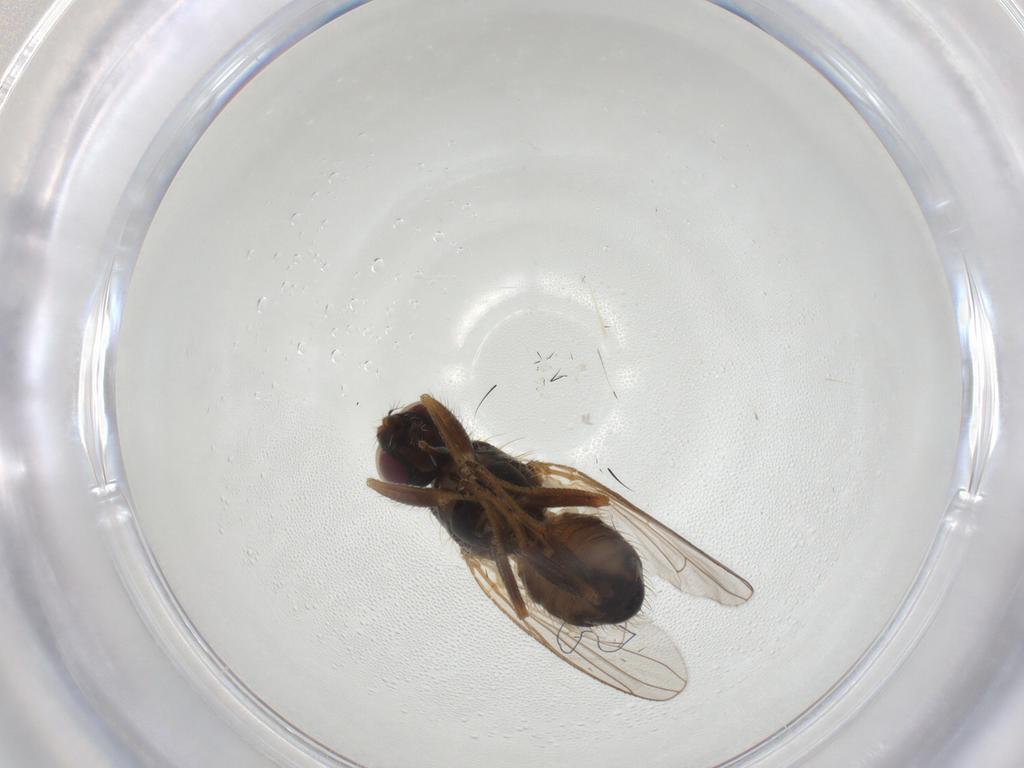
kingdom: Animalia
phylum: Arthropoda
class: Insecta
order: Diptera
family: Muscidae
